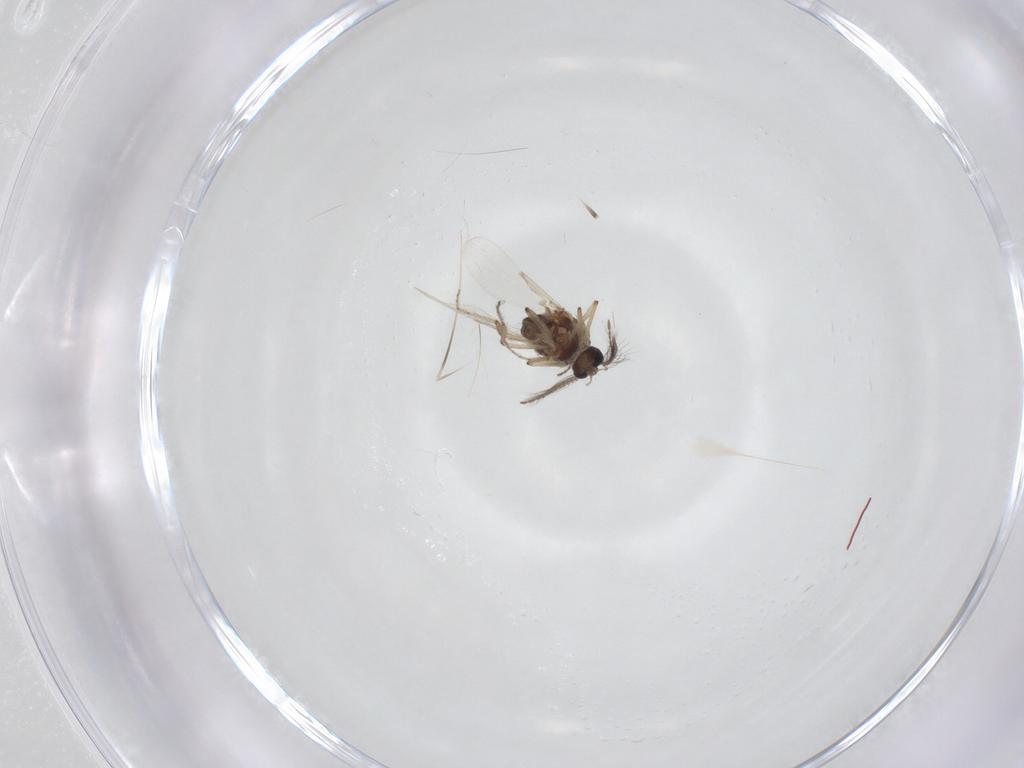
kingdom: Animalia
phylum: Arthropoda
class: Insecta
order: Diptera
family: Ceratopogonidae
